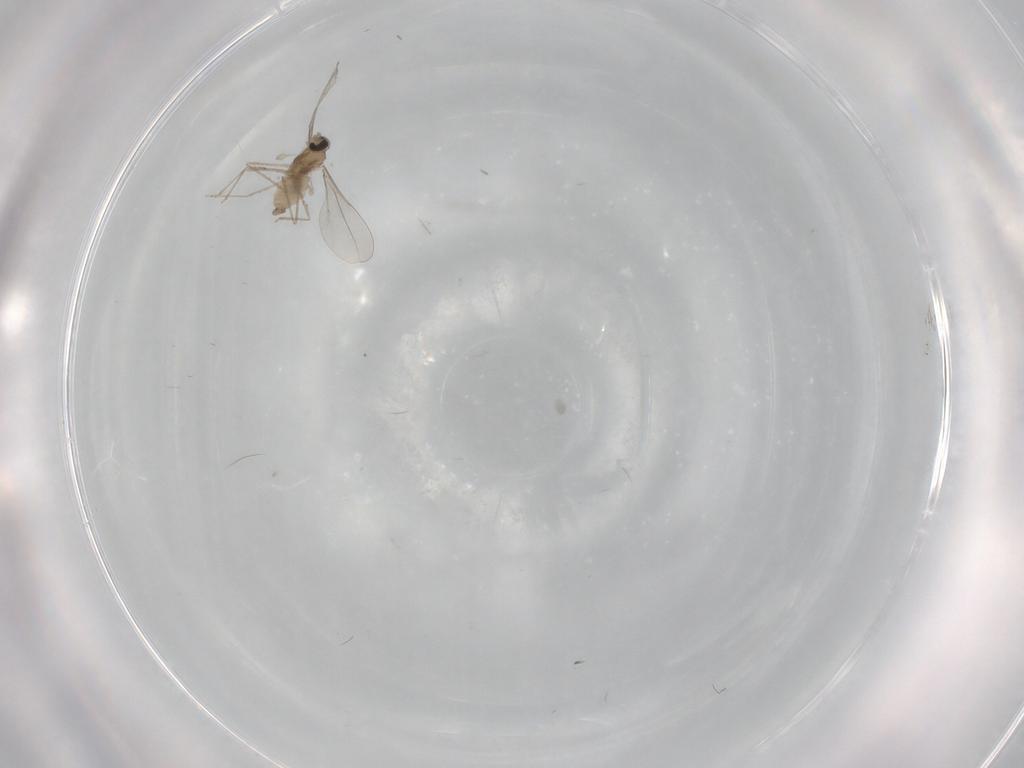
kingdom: Animalia
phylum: Arthropoda
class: Insecta
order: Diptera
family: Cecidomyiidae
